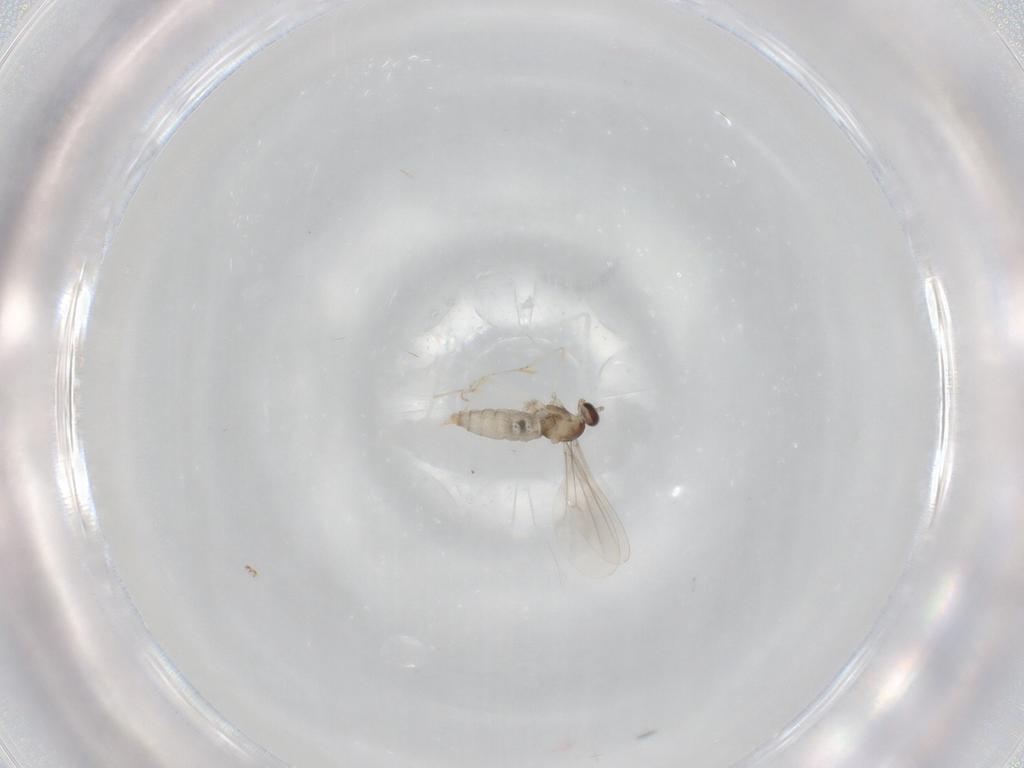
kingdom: Animalia
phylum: Arthropoda
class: Insecta
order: Diptera
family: Cecidomyiidae
